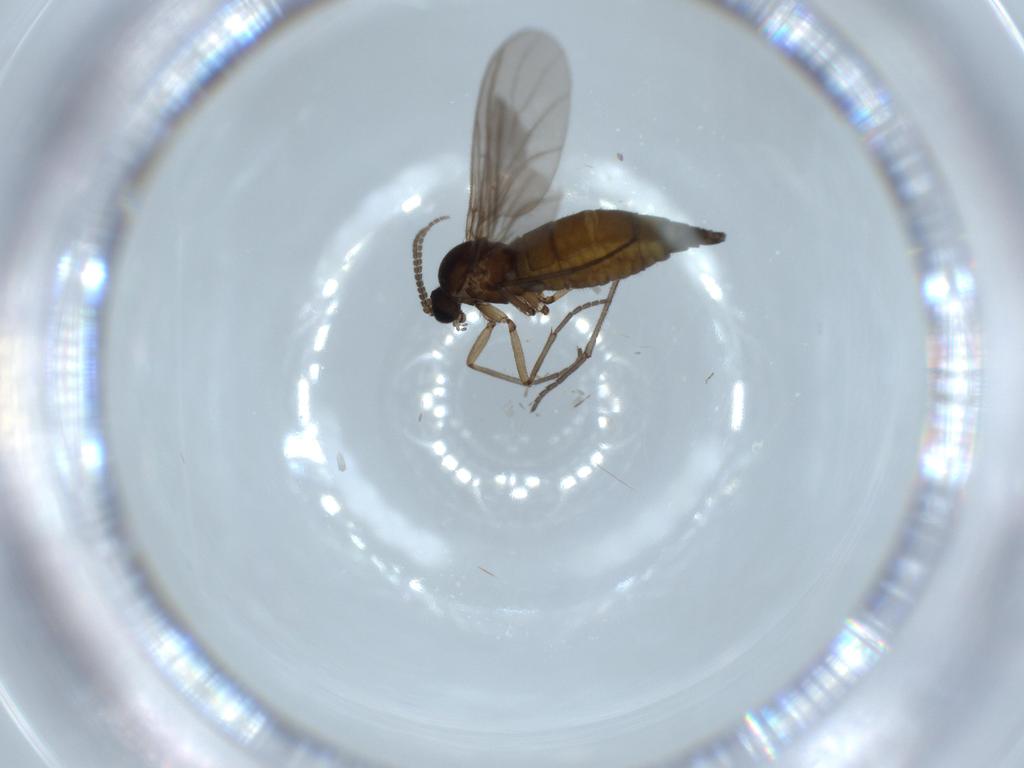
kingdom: Animalia
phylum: Arthropoda
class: Insecta
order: Diptera
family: Sciaridae
